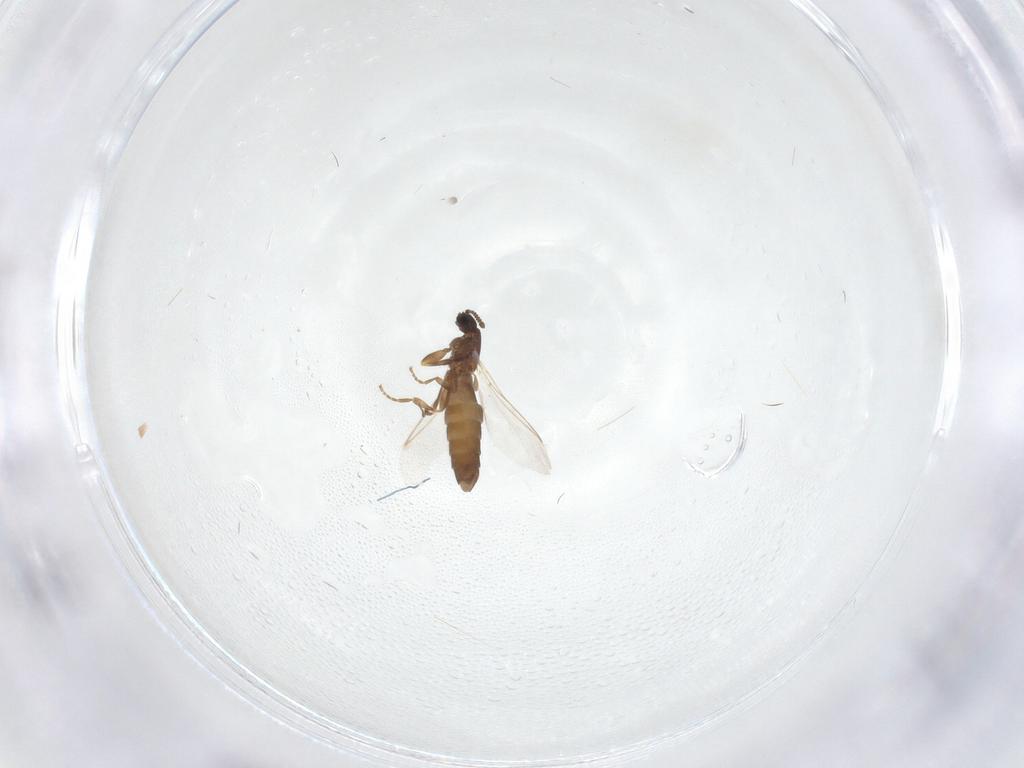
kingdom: Animalia
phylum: Arthropoda
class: Insecta
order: Diptera
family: Scatopsidae
